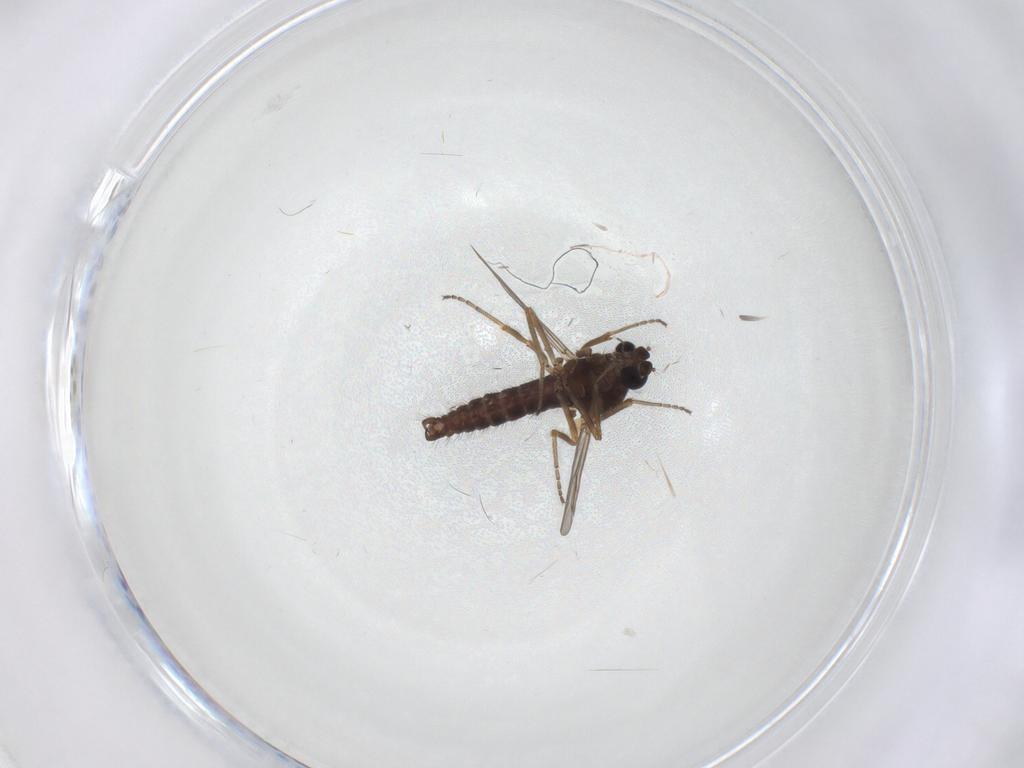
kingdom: Animalia
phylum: Arthropoda
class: Insecta
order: Diptera
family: Ceratopogonidae
